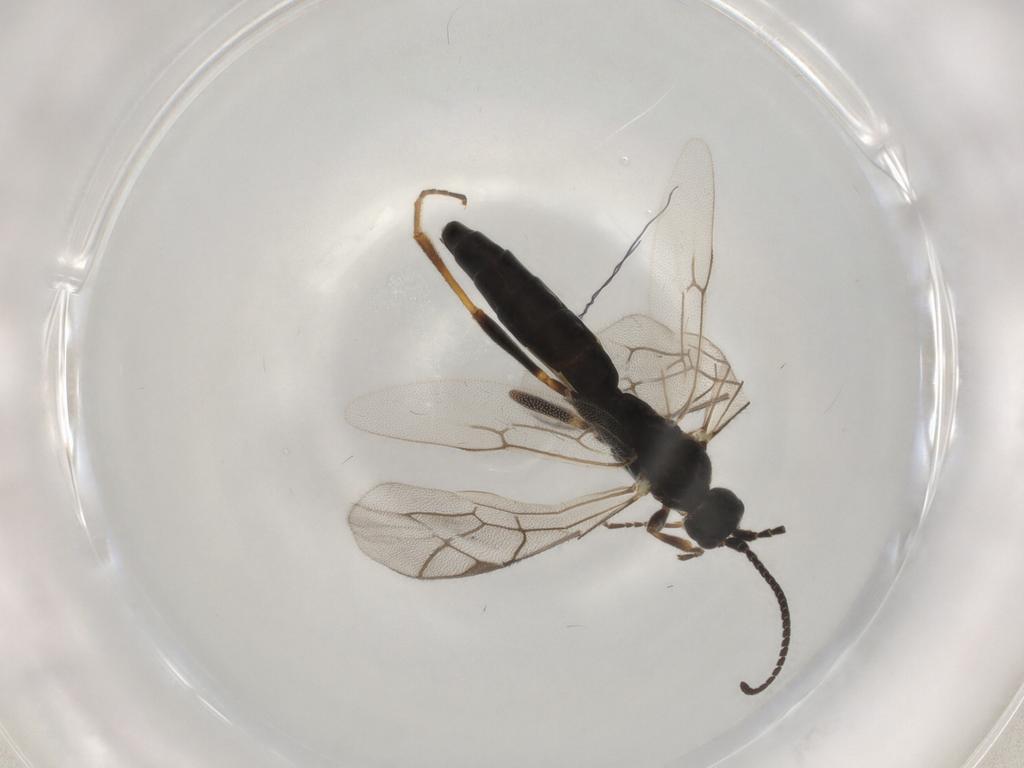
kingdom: Animalia
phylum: Arthropoda
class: Insecta
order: Hymenoptera
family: Ichneumonidae
